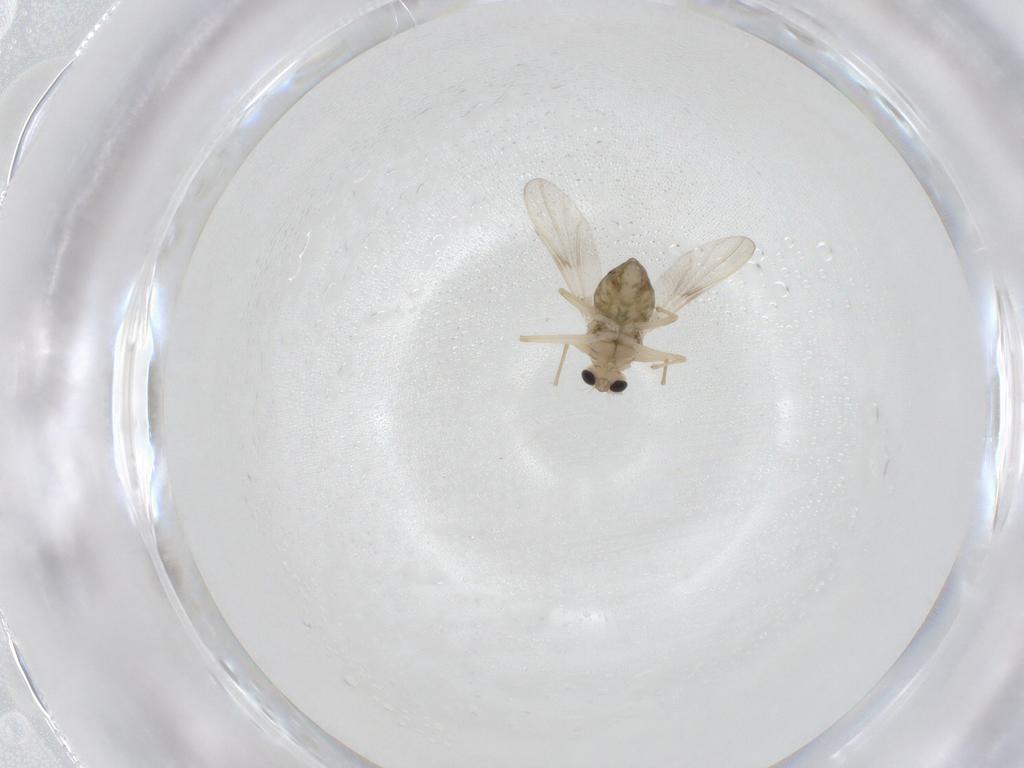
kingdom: Animalia
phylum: Arthropoda
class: Insecta
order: Diptera
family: Chironomidae
